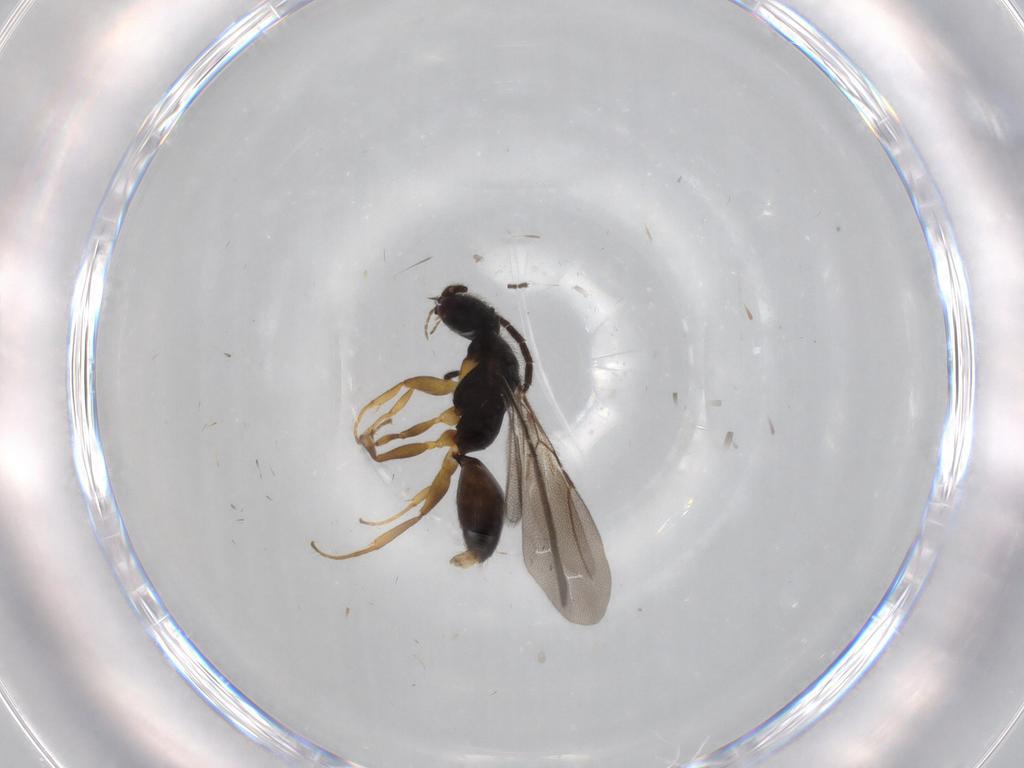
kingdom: Animalia
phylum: Arthropoda
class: Insecta
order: Hymenoptera
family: Bethylidae
